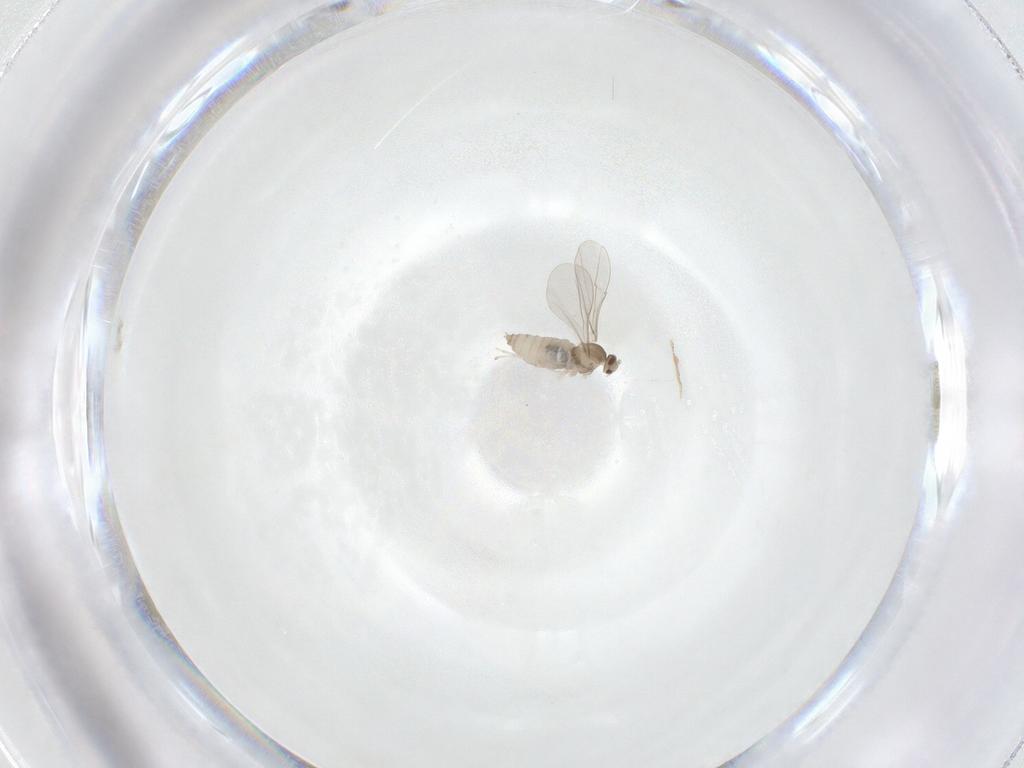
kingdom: Animalia
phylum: Arthropoda
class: Insecta
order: Diptera
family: Cecidomyiidae
